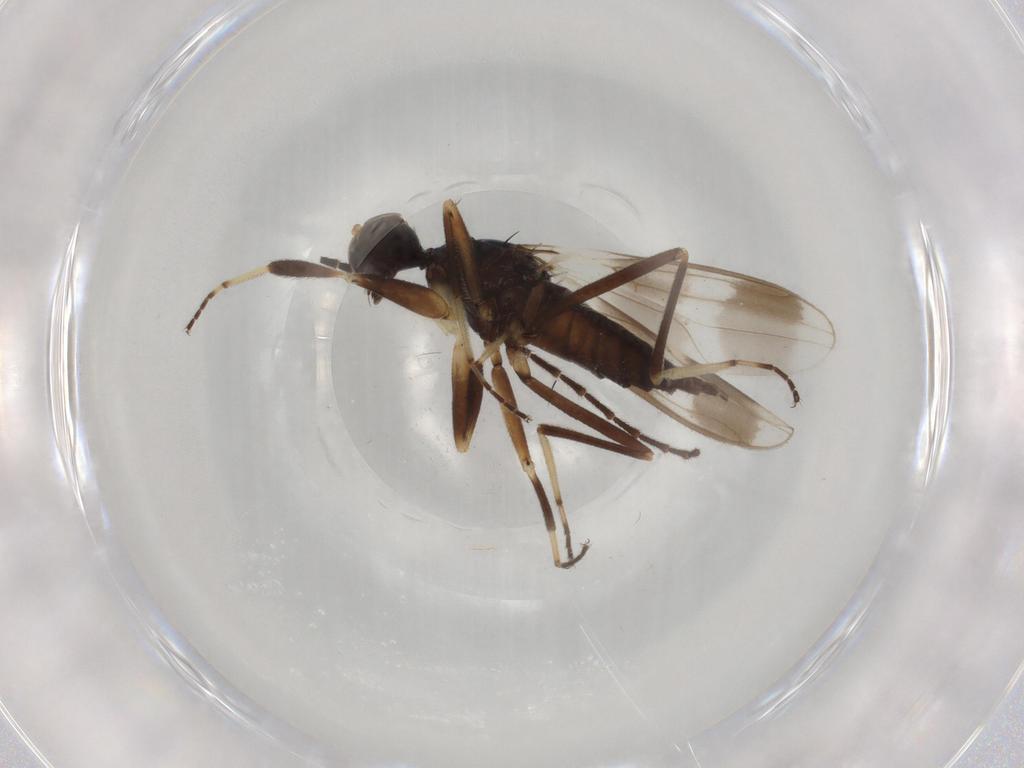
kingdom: Animalia
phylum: Arthropoda
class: Insecta
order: Diptera
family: Hybotidae
